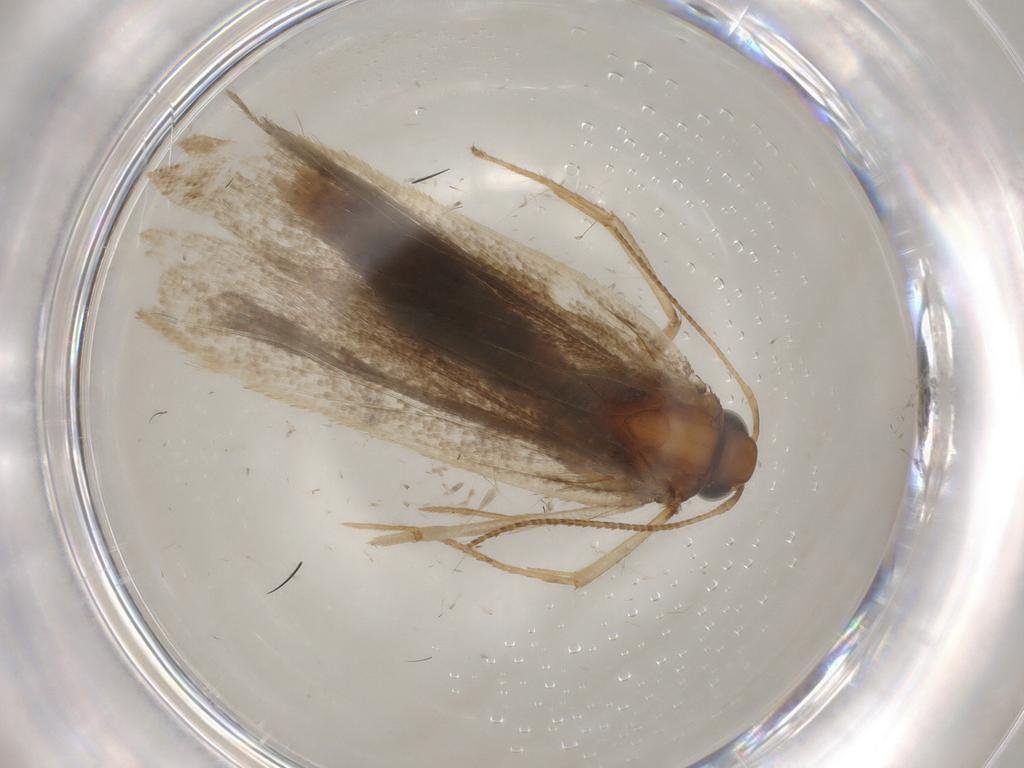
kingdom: Animalia
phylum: Arthropoda
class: Insecta
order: Lepidoptera
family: Gelechiidae
